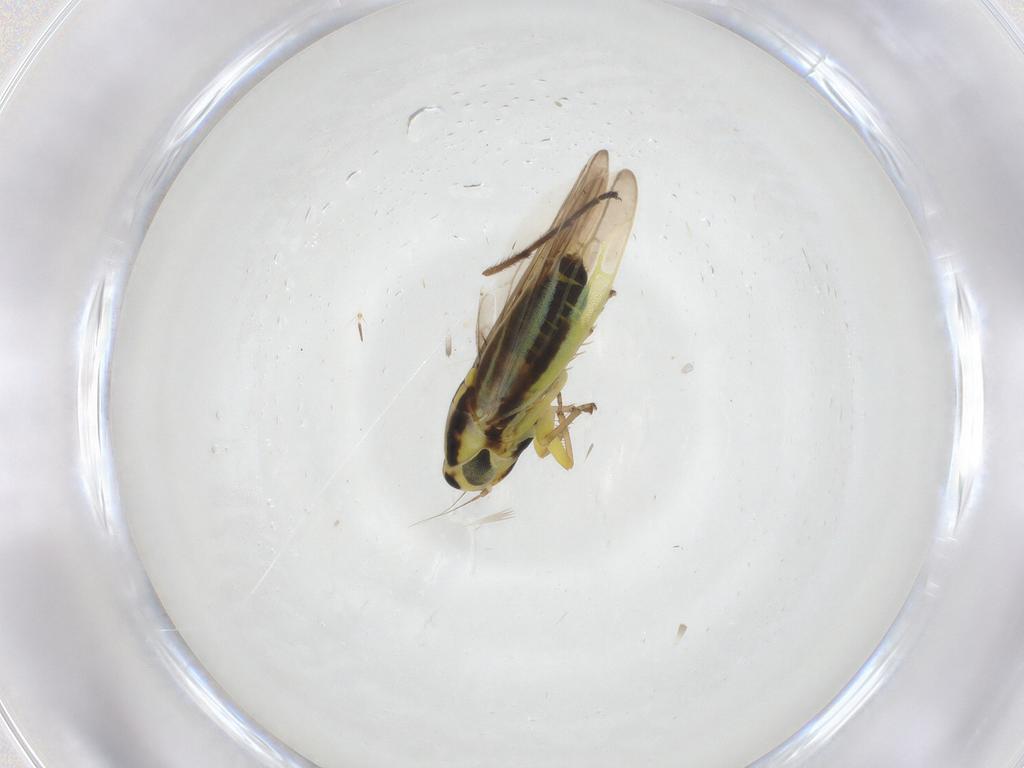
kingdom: Animalia
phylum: Arthropoda
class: Insecta
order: Hemiptera
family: Cicadellidae
